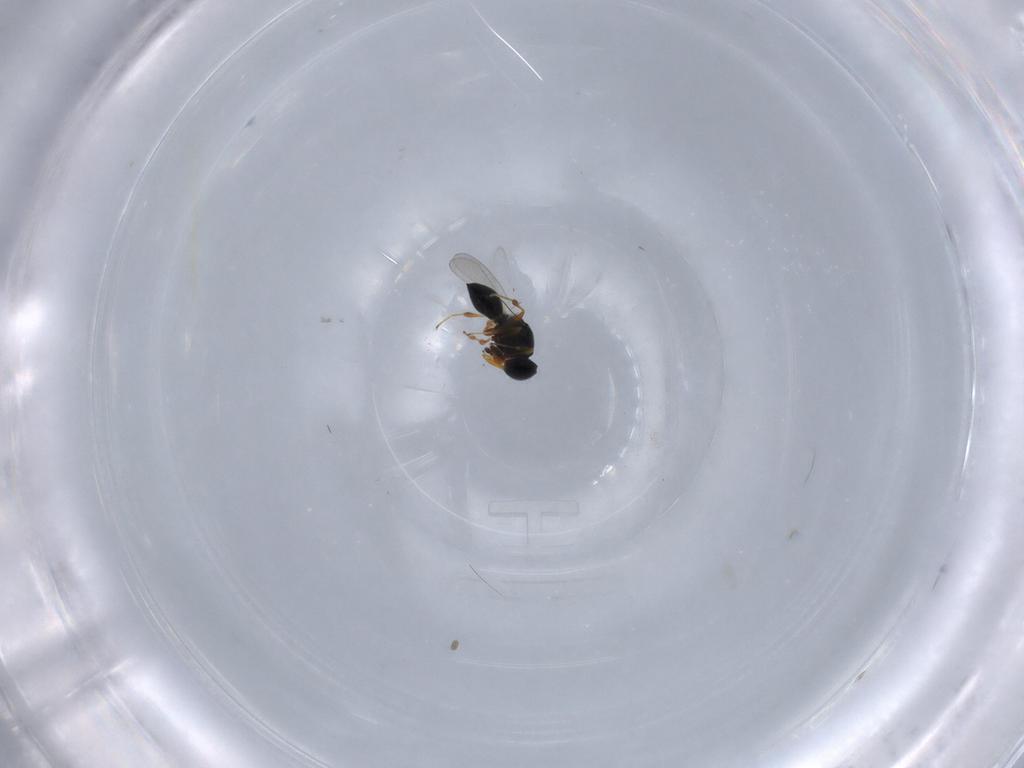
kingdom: Animalia
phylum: Arthropoda
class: Insecta
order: Hymenoptera
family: Platygastridae
